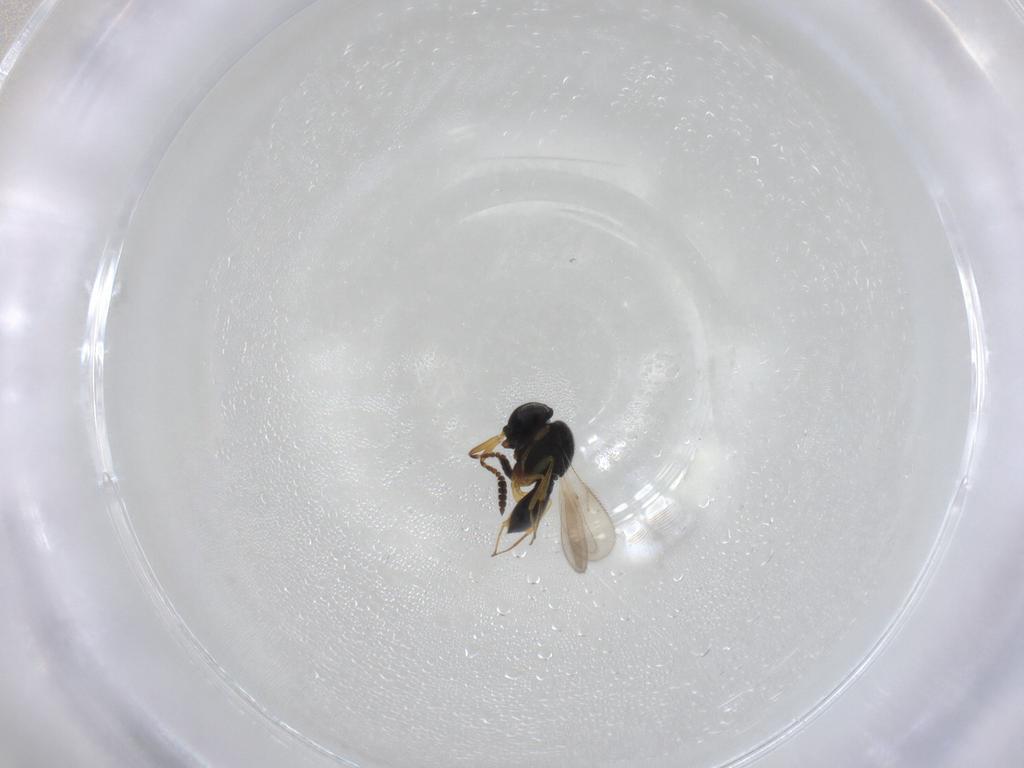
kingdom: Animalia
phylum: Arthropoda
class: Insecta
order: Hymenoptera
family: Scelionidae
